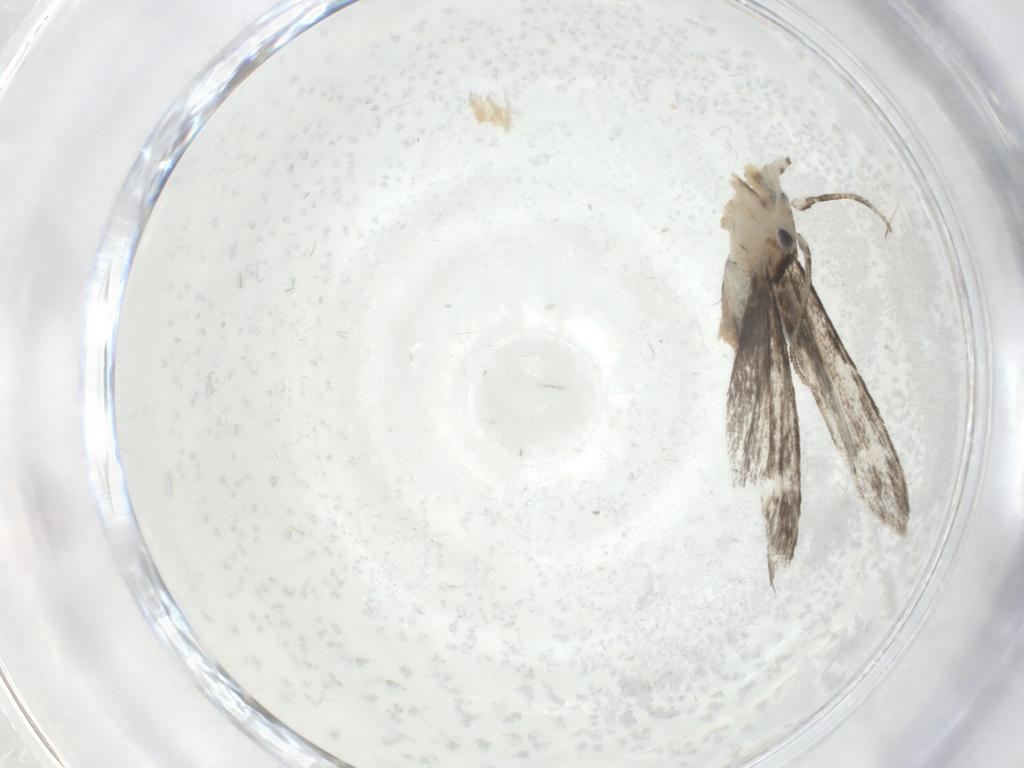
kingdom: Animalia
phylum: Arthropoda
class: Insecta
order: Lepidoptera
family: Tineidae
